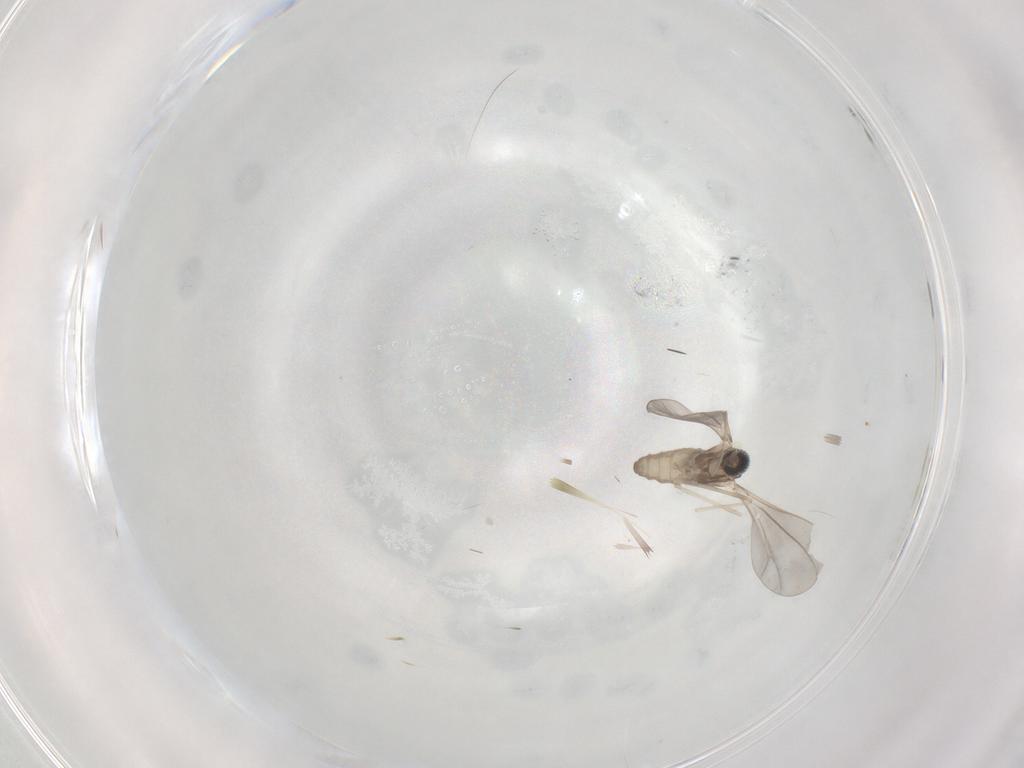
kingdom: Animalia
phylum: Arthropoda
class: Insecta
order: Diptera
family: Cecidomyiidae
